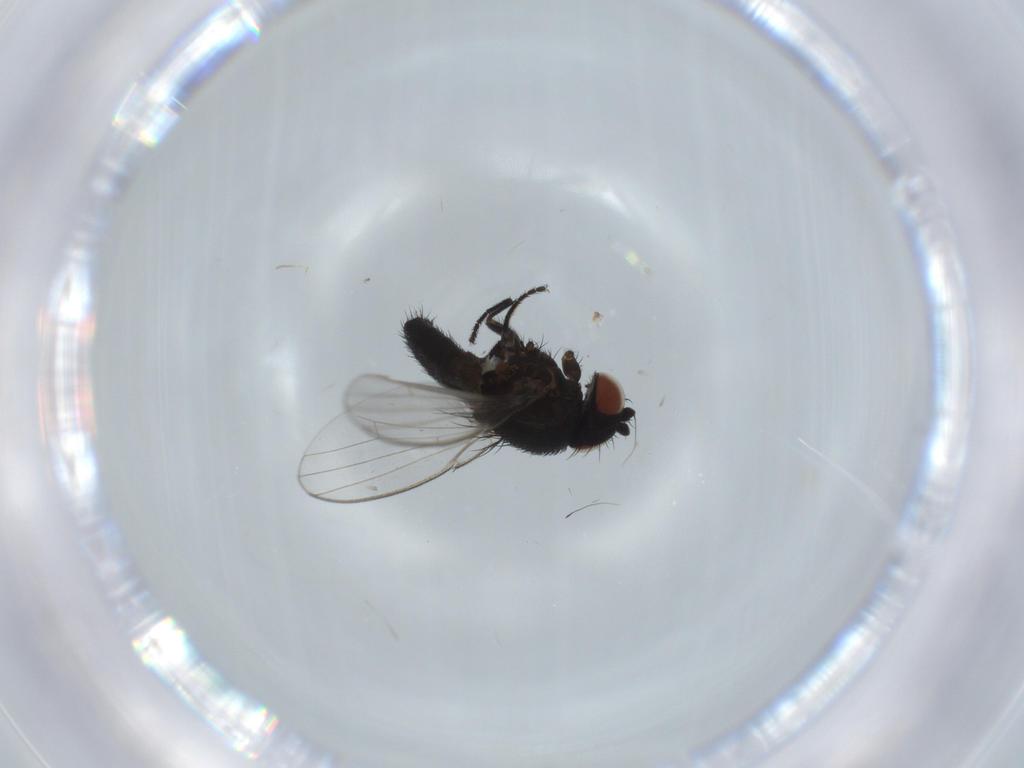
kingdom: Animalia
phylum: Arthropoda
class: Insecta
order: Diptera
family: Milichiidae
